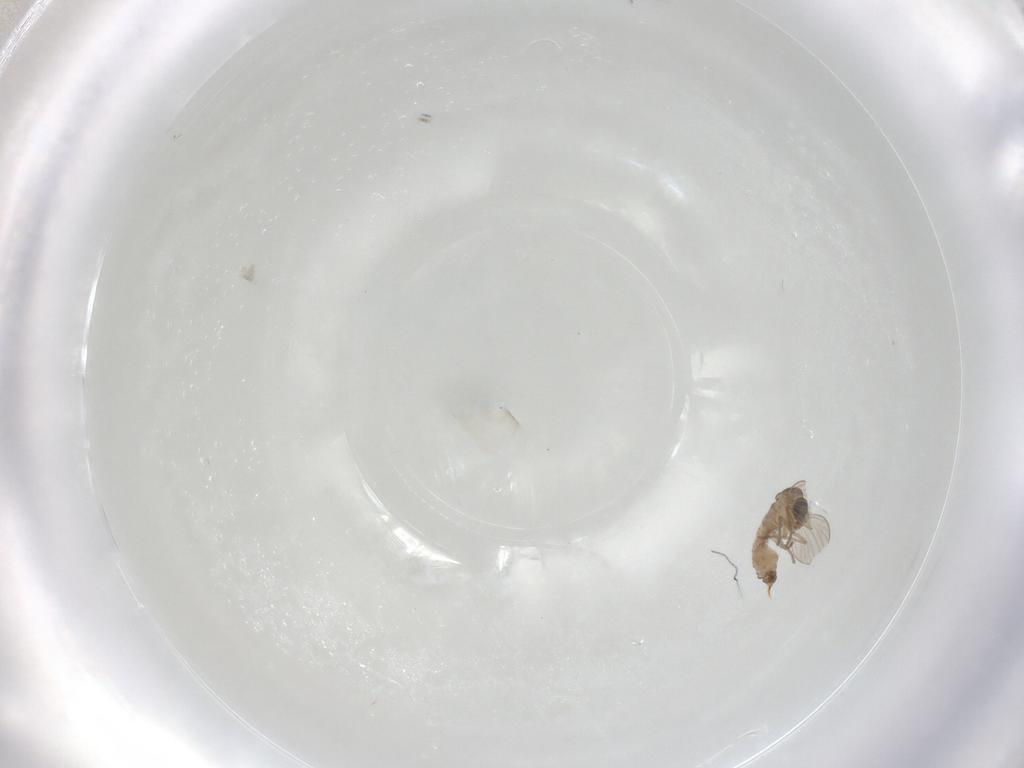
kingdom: Animalia
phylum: Arthropoda
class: Insecta
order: Diptera
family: Psychodidae
